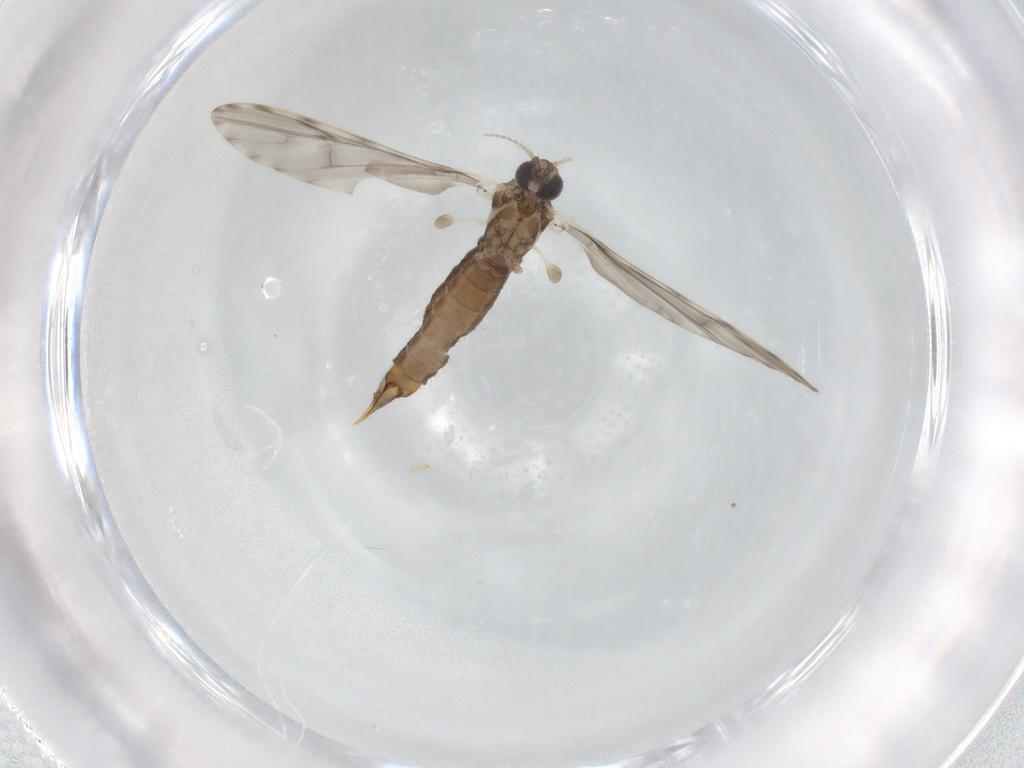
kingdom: Animalia
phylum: Arthropoda
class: Insecta
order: Diptera
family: Limoniidae
